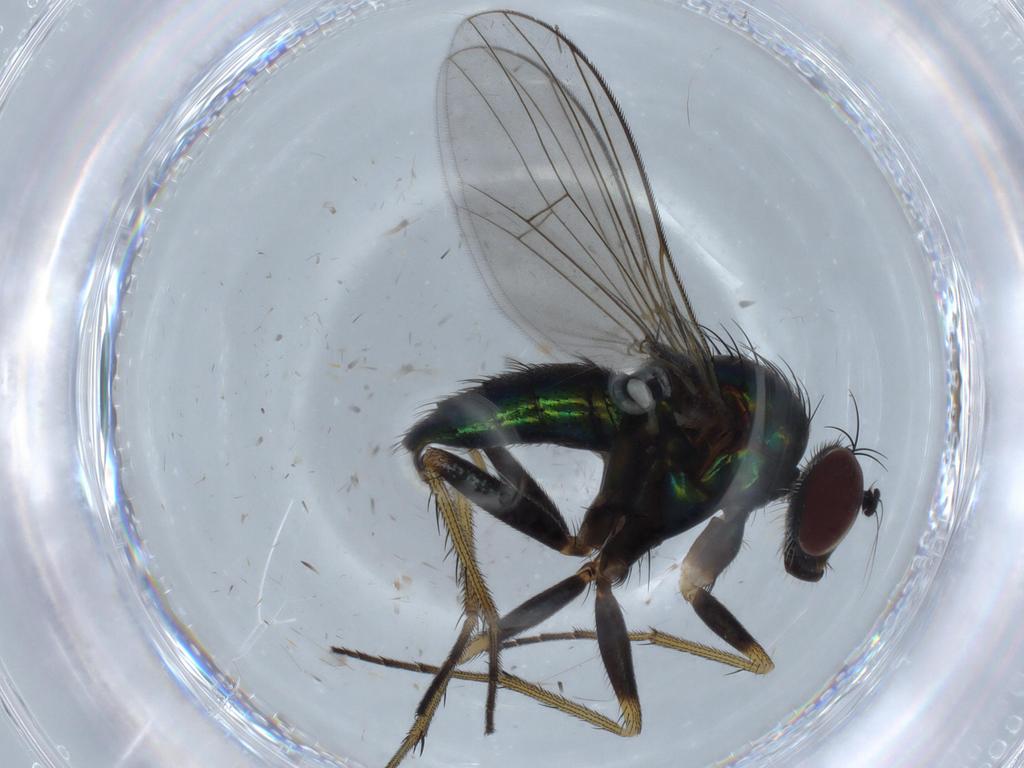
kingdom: Animalia
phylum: Arthropoda
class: Insecta
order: Diptera
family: Dolichopodidae
